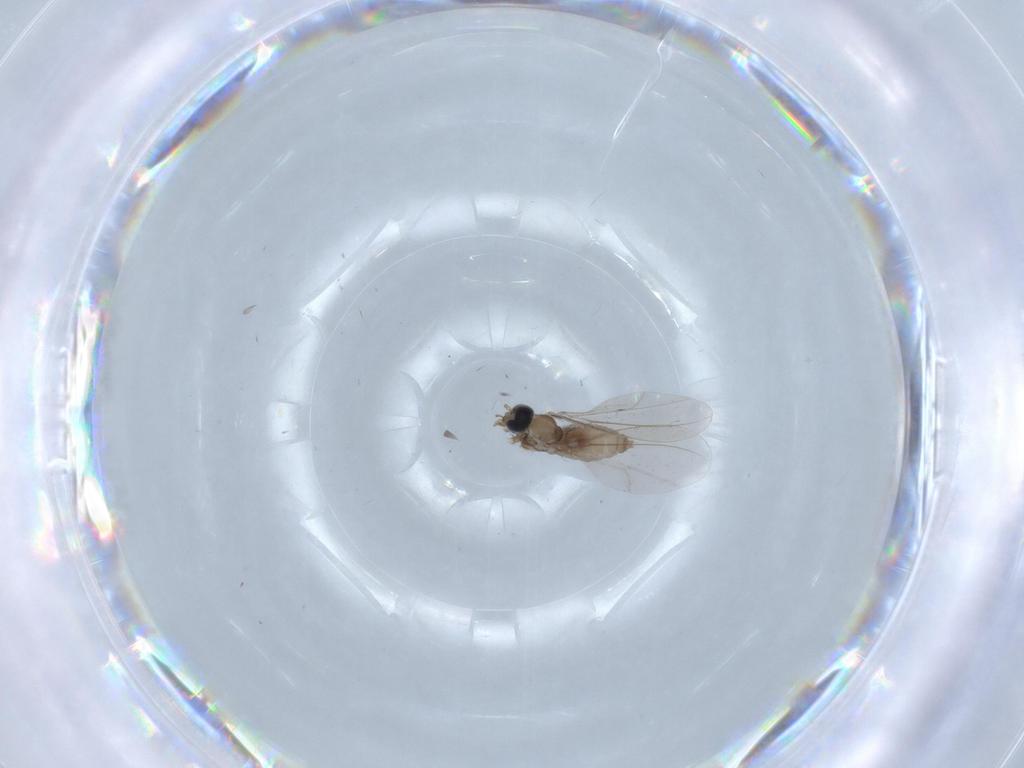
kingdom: Animalia
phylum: Arthropoda
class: Insecta
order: Diptera
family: Cecidomyiidae
